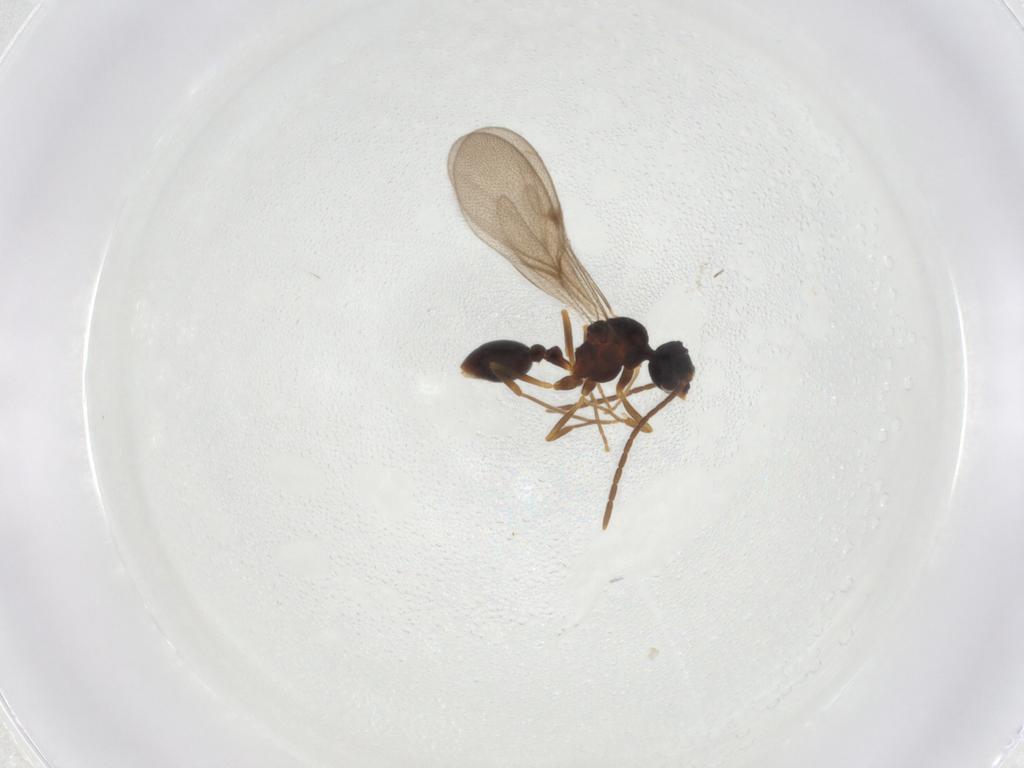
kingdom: Animalia
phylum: Arthropoda
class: Insecta
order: Hymenoptera
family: Formicidae
